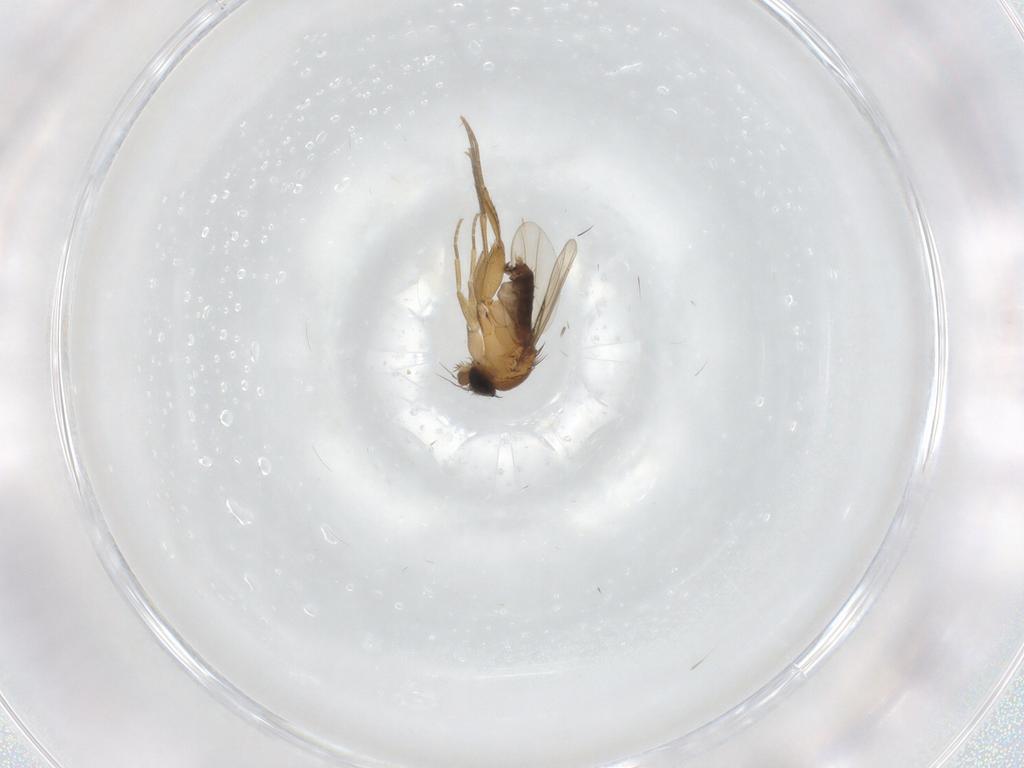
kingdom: Animalia
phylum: Arthropoda
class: Insecta
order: Diptera
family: Phoridae
